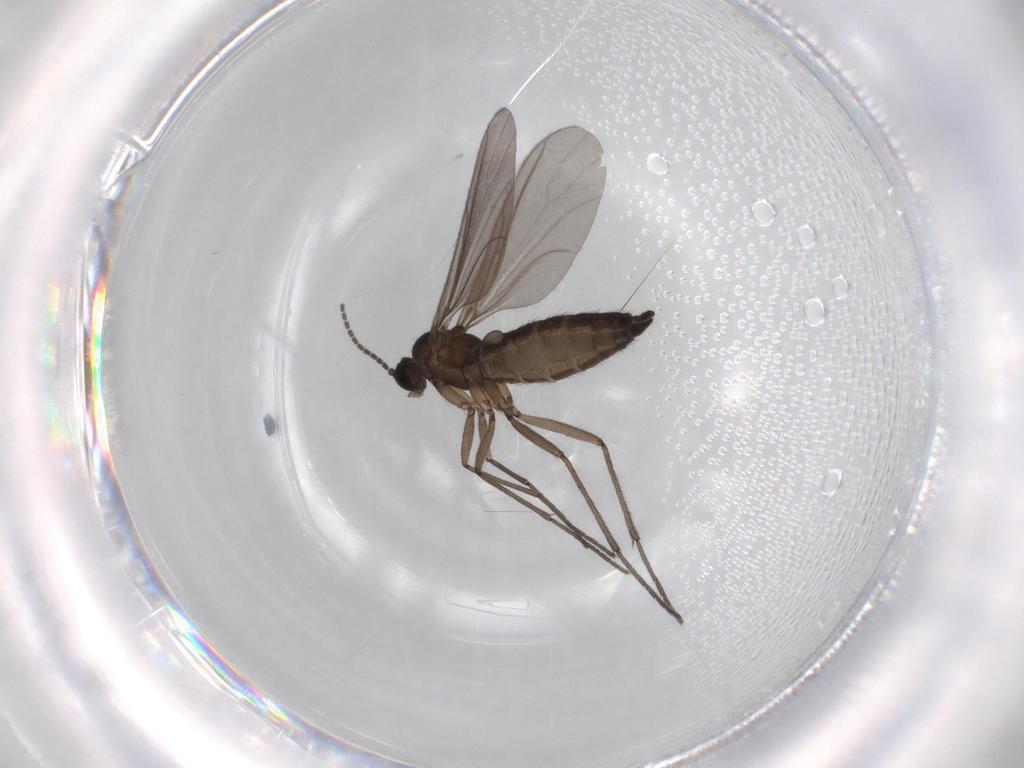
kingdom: Animalia
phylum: Arthropoda
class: Insecta
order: Diptera
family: Sciaridae
